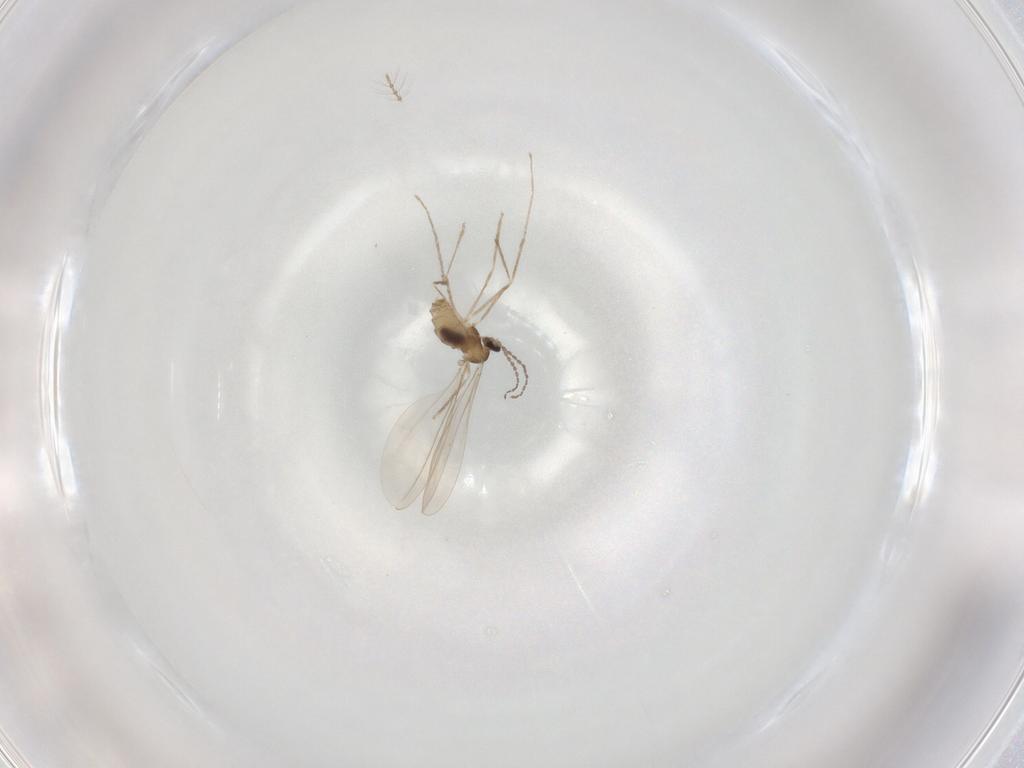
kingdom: Animalia
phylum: Arthropoda
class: Insecta
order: Diptera
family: Cecidomyiidae
